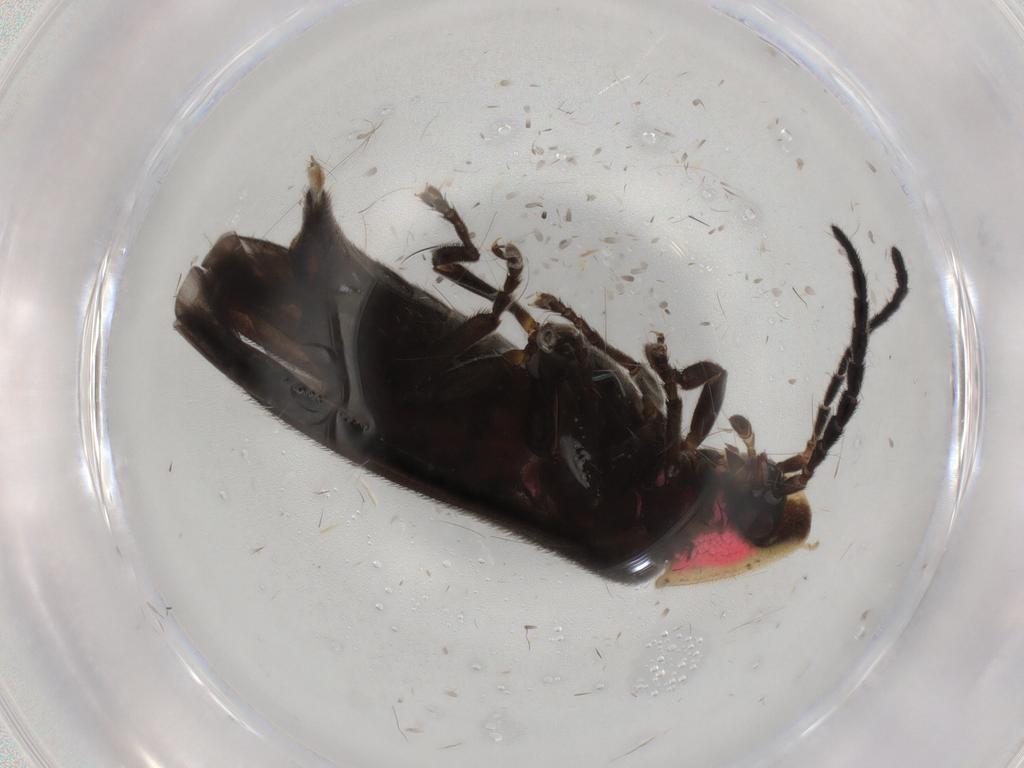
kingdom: Animalia
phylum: Arthropoda
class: Insecta
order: Coleoptera
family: Lampyridae
